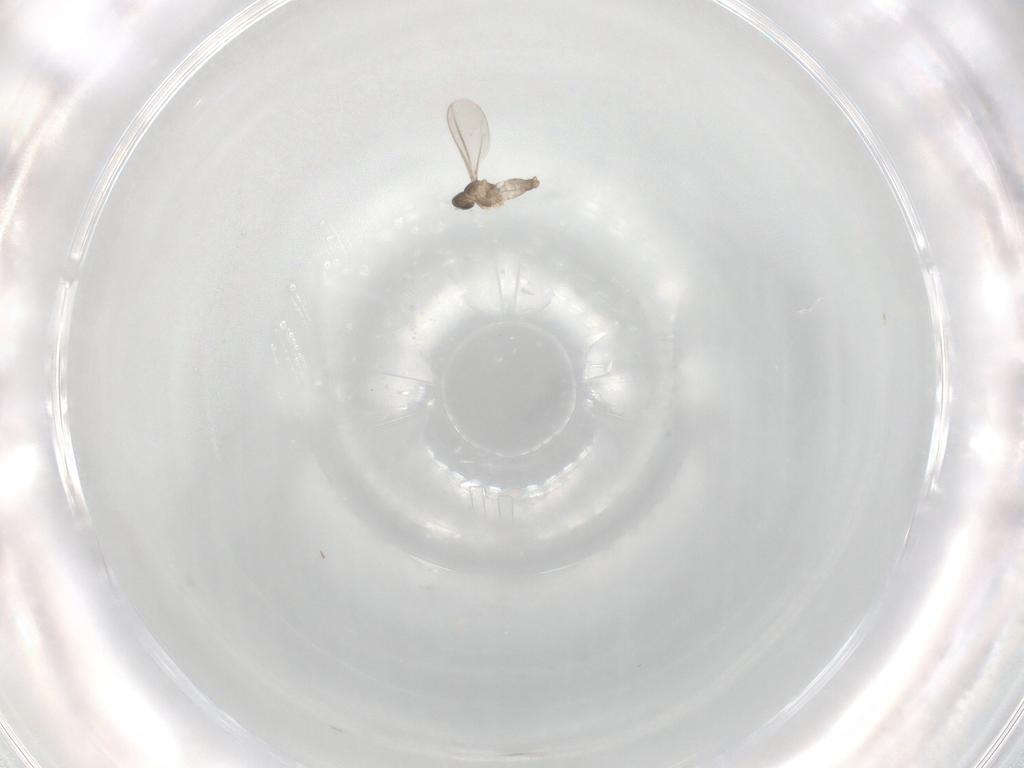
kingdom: Animalia
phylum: Arthropoda
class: Insecta
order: Diptera
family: Cecidomyiidae
